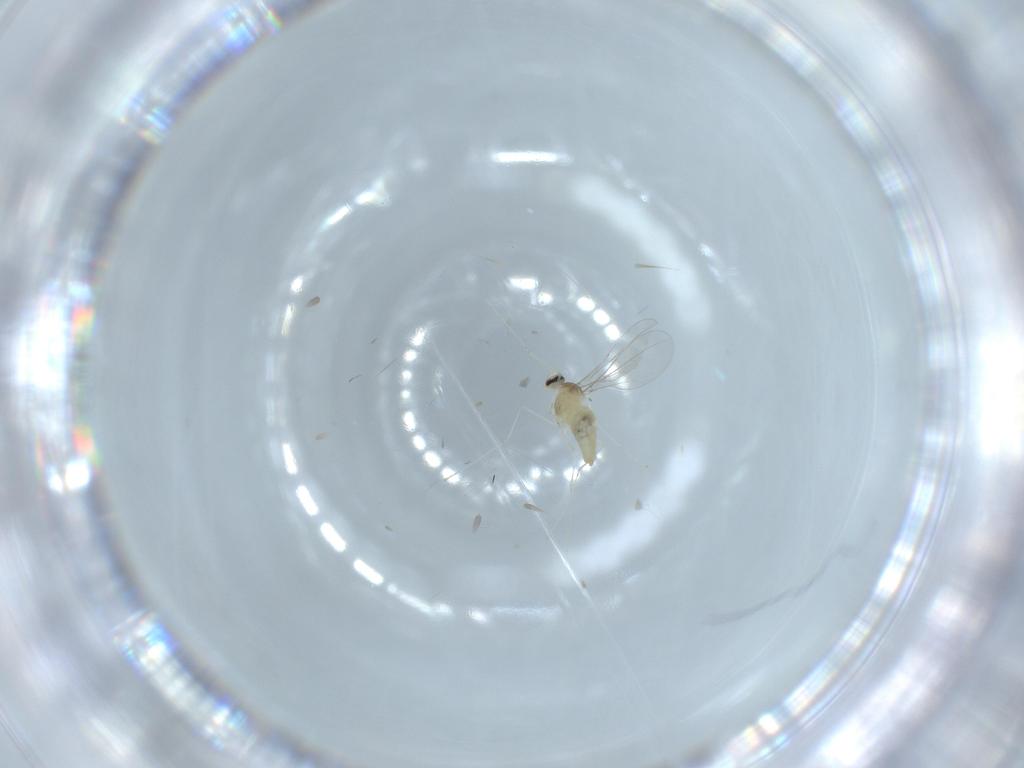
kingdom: Animalia
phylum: Arthropoda
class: Insecta
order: Diptera
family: Cecidomyiidae
